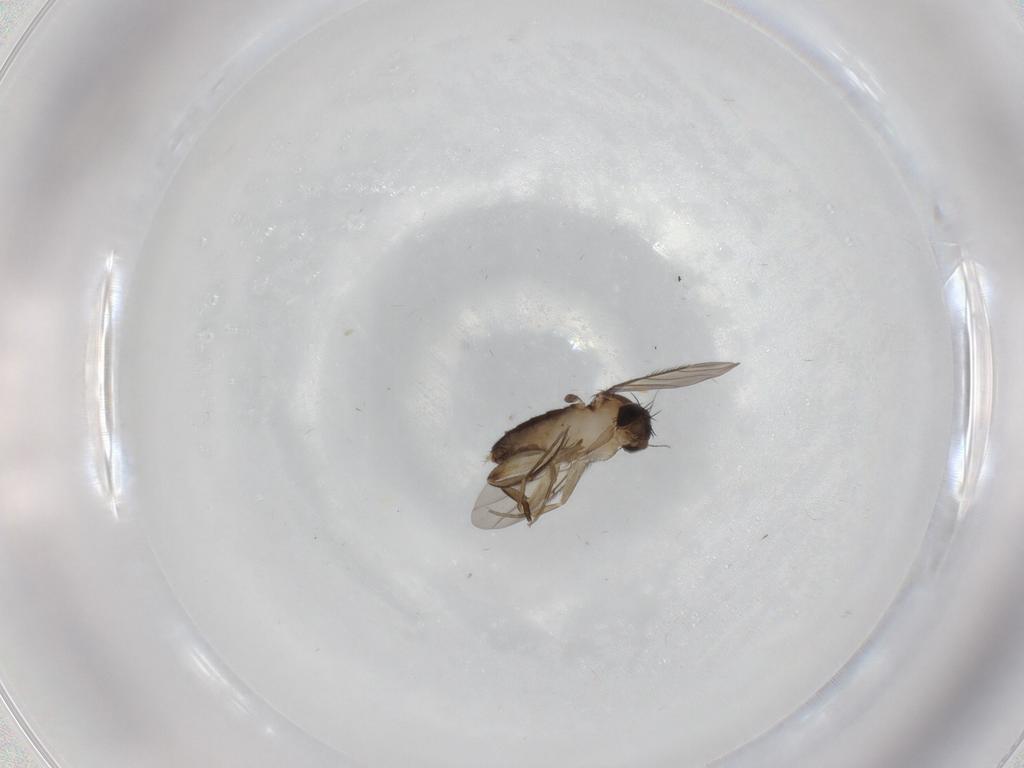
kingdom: Animalia
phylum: Arthropoda
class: Insecta
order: Diptera
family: Phoridae
